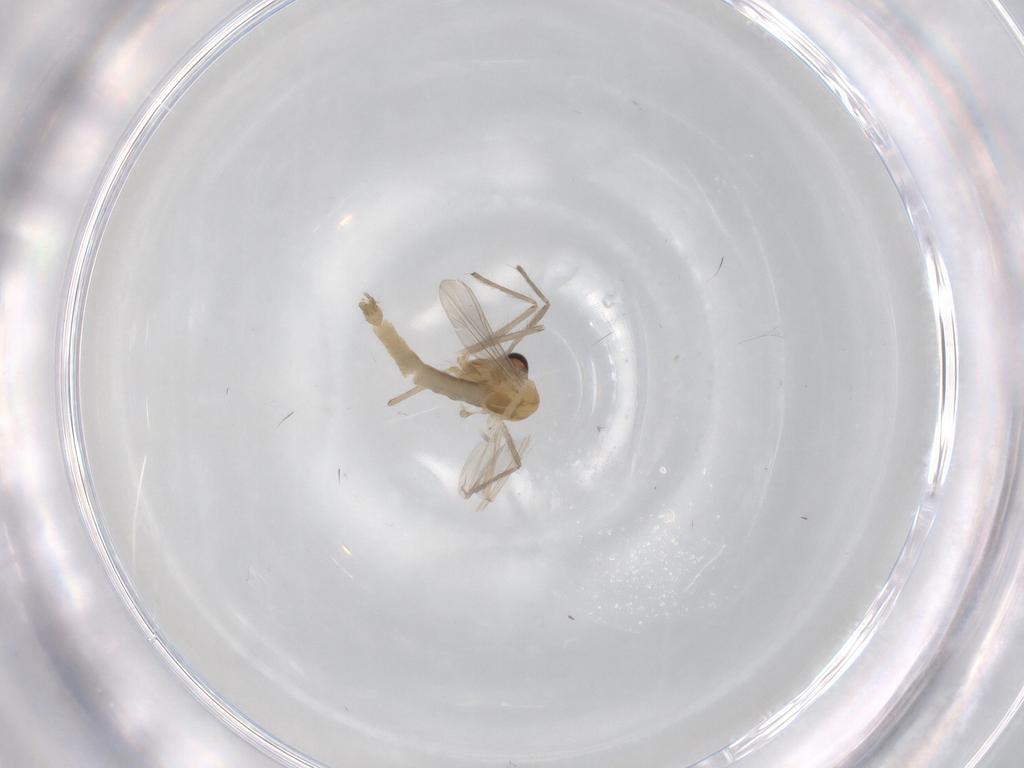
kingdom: Animalia
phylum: Arthropoda
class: Insecta
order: Diptera
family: Chironomidae
